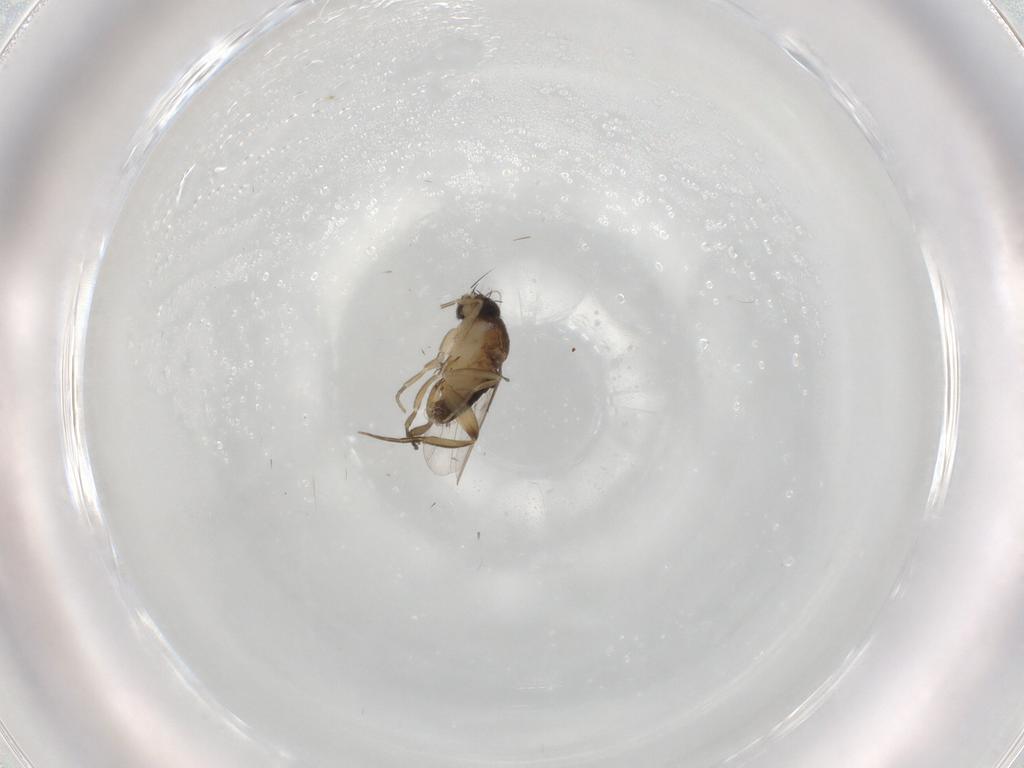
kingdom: Animalia
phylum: Arthropoda
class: Insecta
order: Diptera
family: Phoridae
